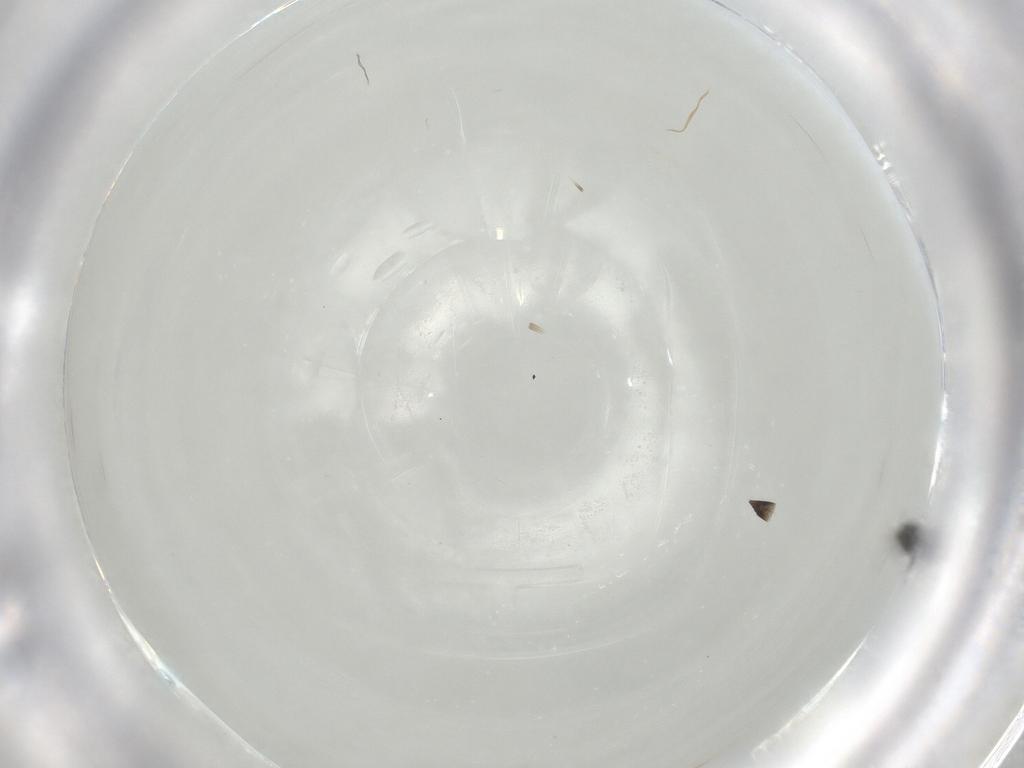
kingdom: Animalia
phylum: Arthropoda
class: Insecta
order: Hymenoptera
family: Scelionidae
